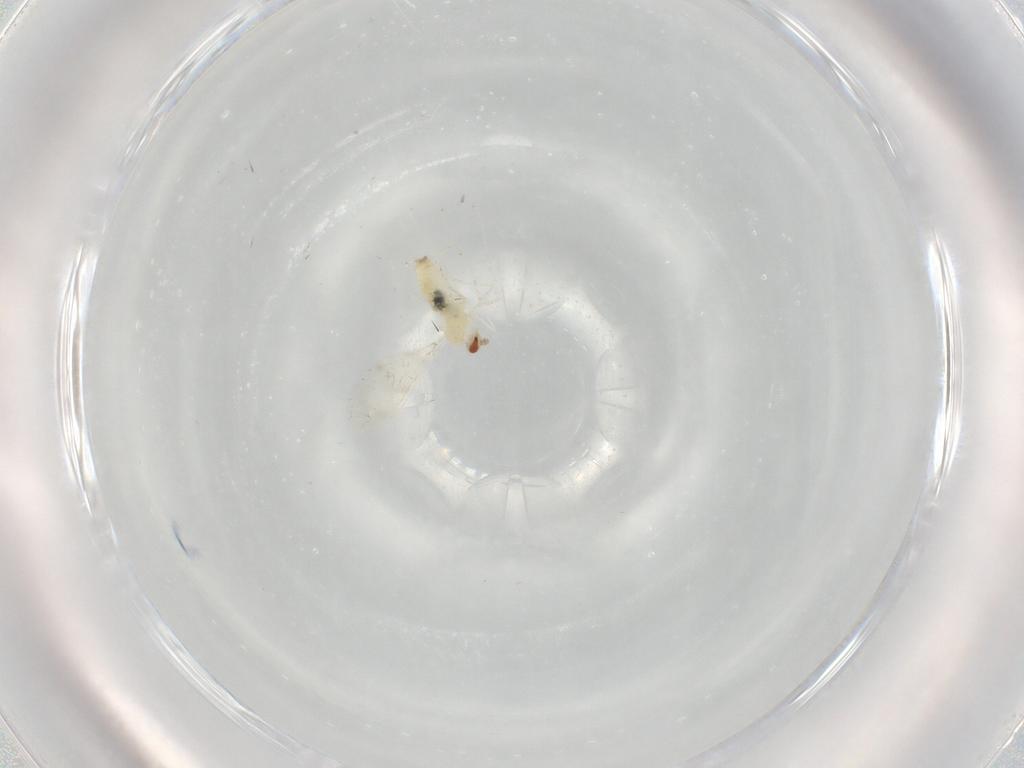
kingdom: Animalia
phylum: Arthropoda
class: Insecta
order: Diptera
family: Cecidomyiidae
